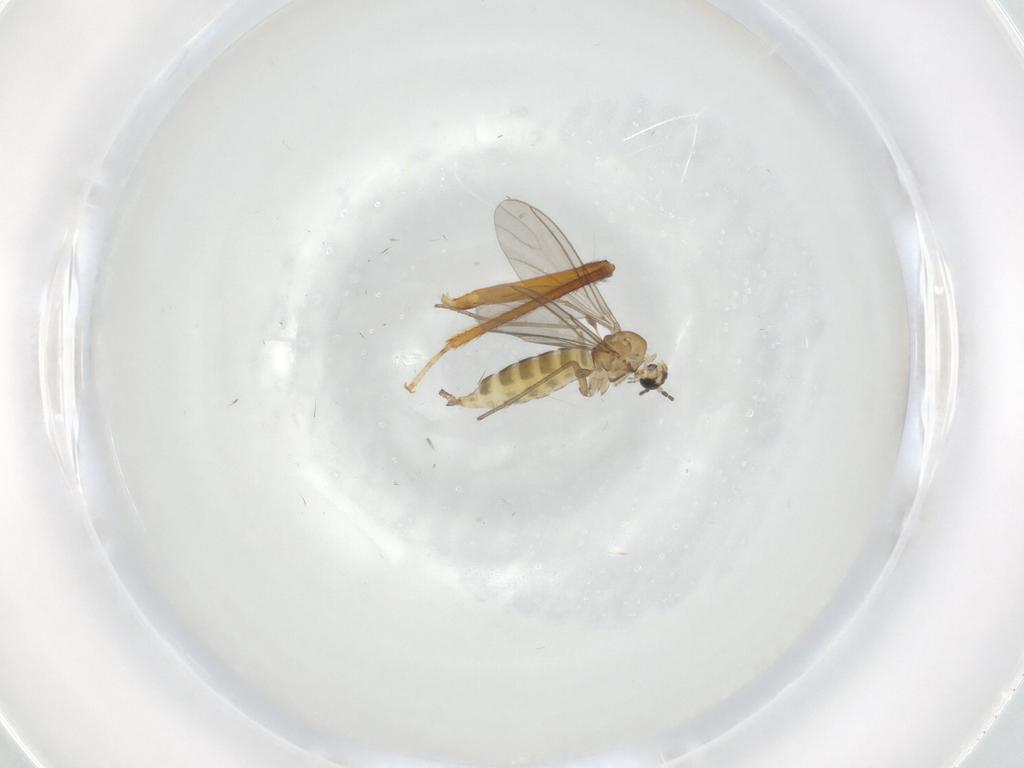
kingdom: Animalia
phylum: Arthropoda
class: Insecta
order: Diptera
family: Sciaridae
